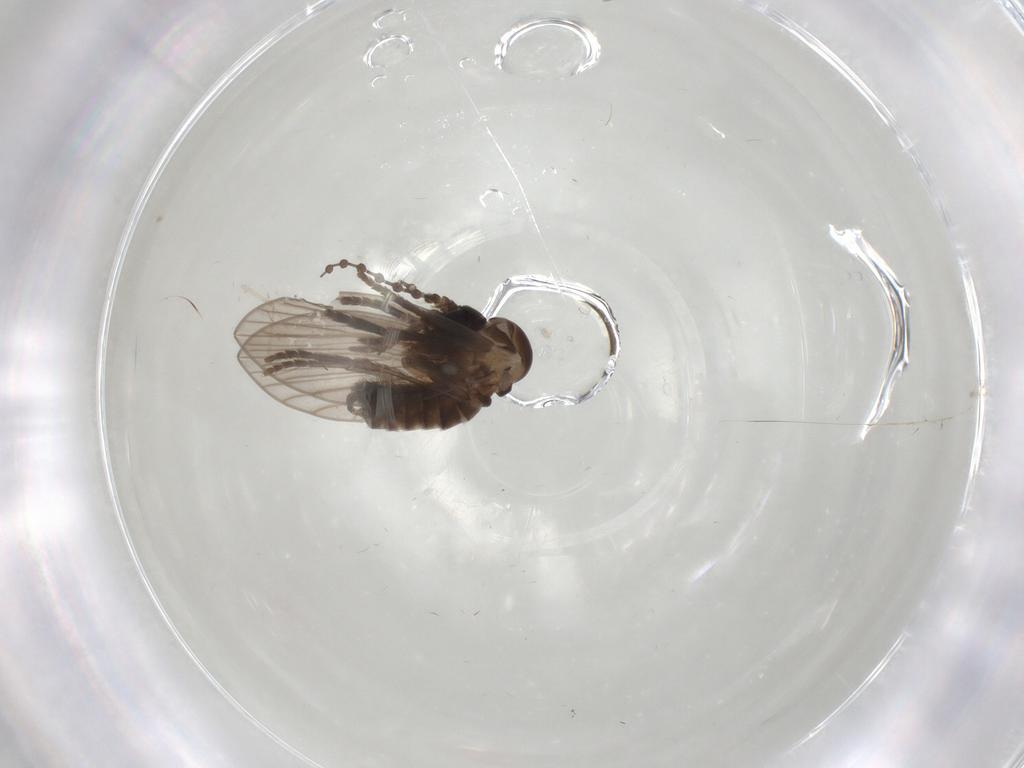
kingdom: Animalia
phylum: Arthropoda
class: Insecta
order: Diptera
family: Psychodidae
